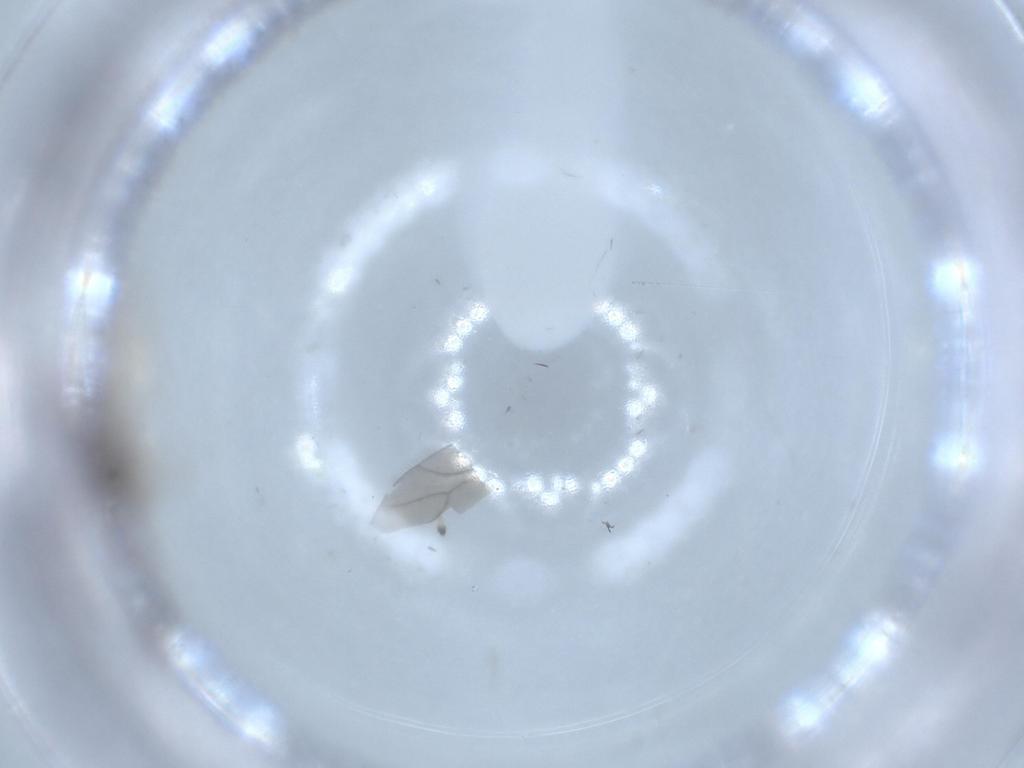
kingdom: Animalia
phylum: Arthropoda
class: Insecta
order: Hymenoptera
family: Diapriidae
